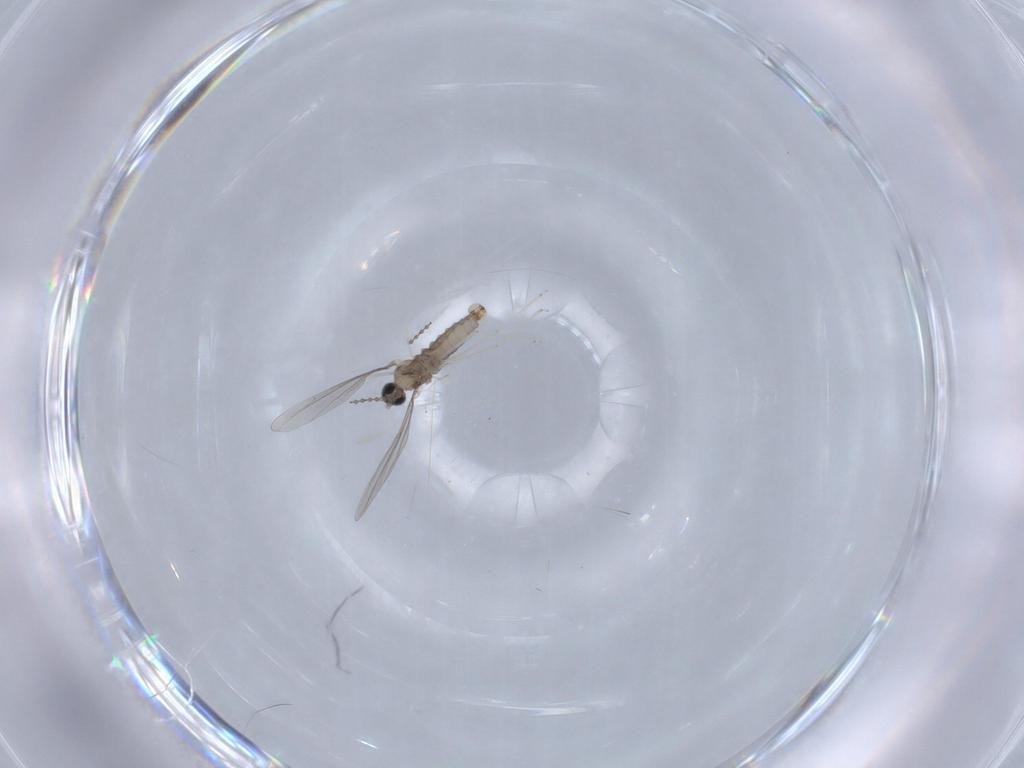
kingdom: Animalia
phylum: Arthropoda
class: Insecta
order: Diptera
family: Cecidomyiidae
